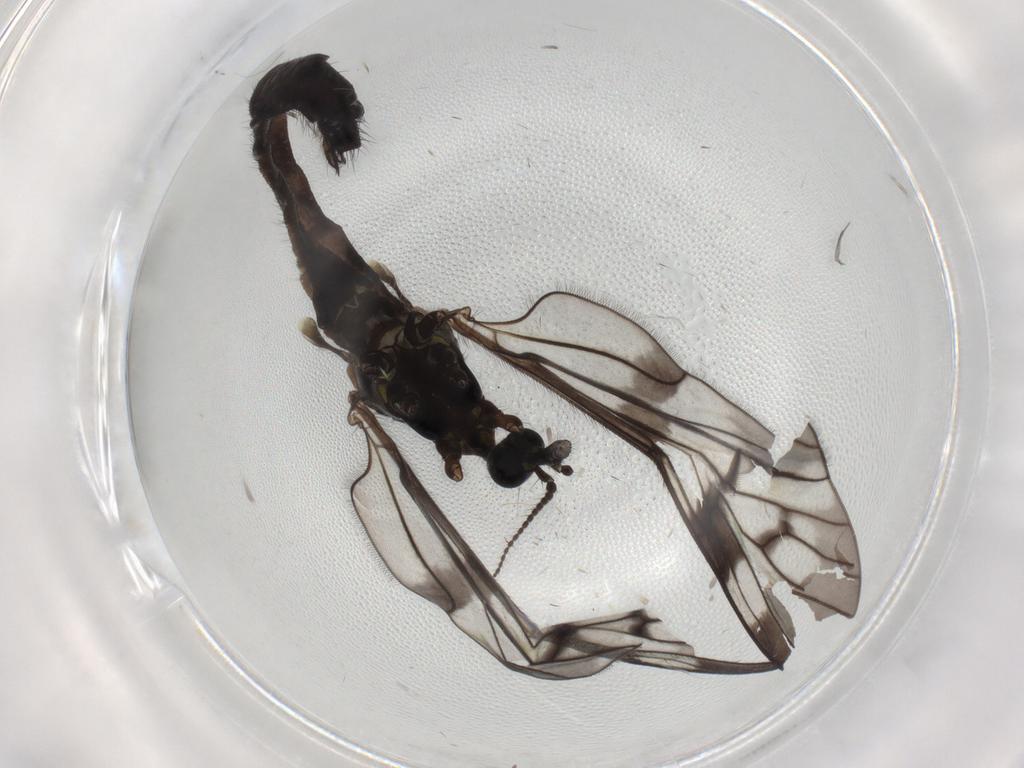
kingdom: Animalia
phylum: Arthropoda
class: Insecta
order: Diptera
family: Limoniidae
